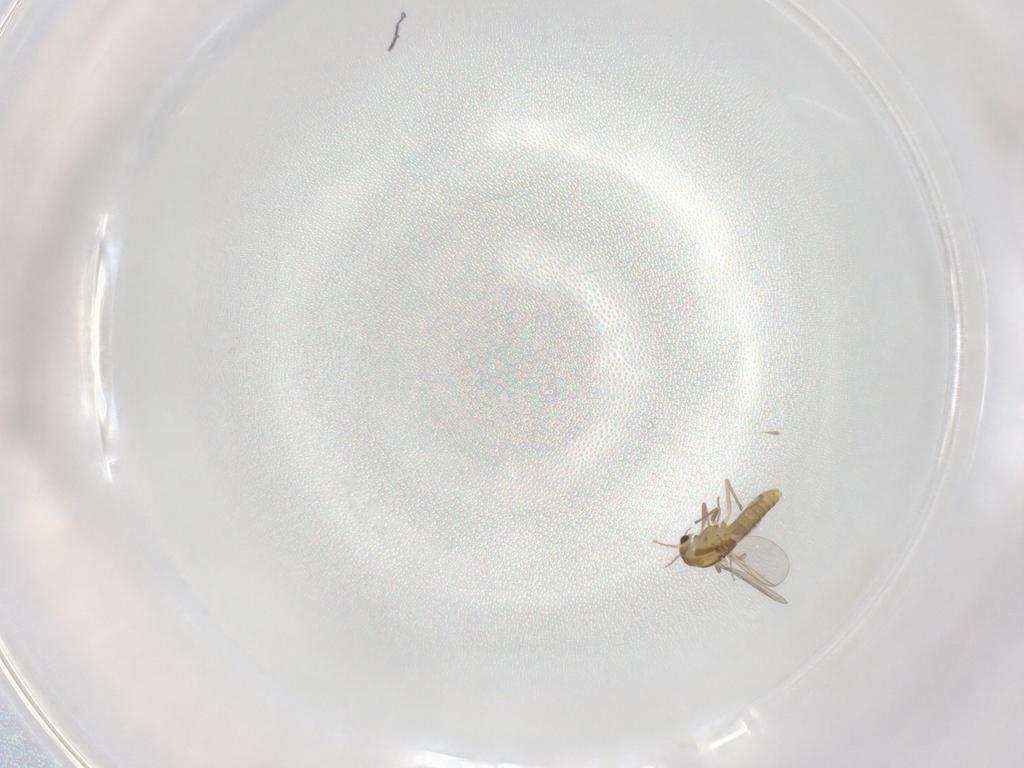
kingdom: Animalia
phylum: Arthropoda
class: Insecta
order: Diptera
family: Chironomidae
